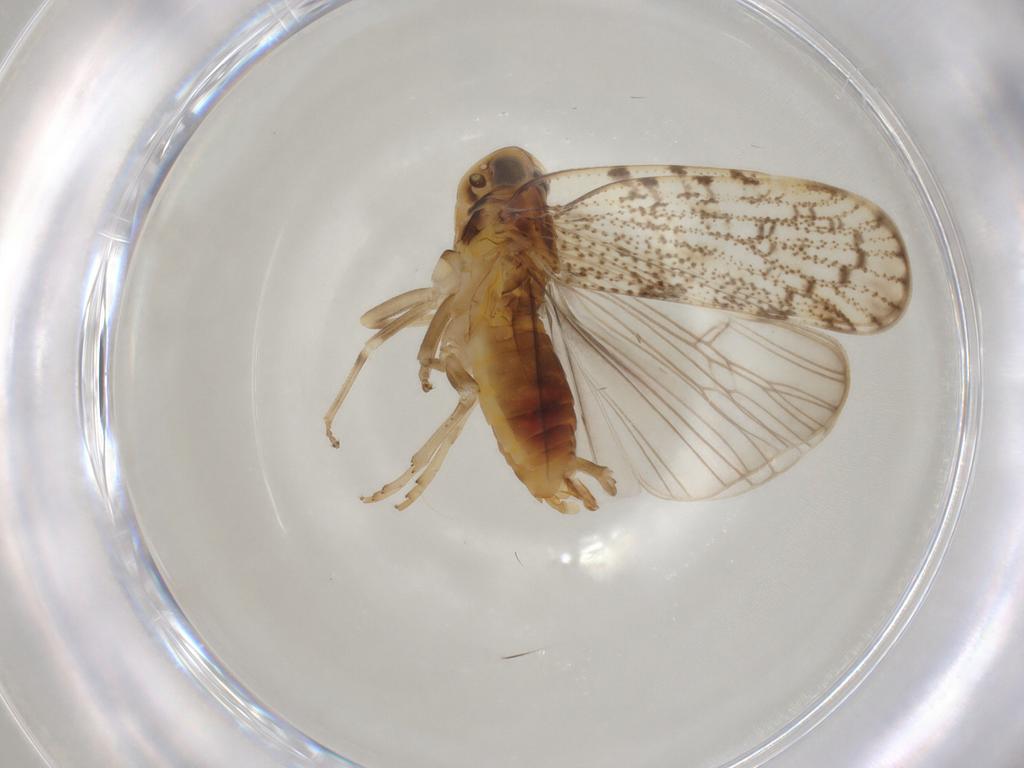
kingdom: Animalia
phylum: Arthropoda
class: Insecta
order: Diptera
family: Sciaridae
